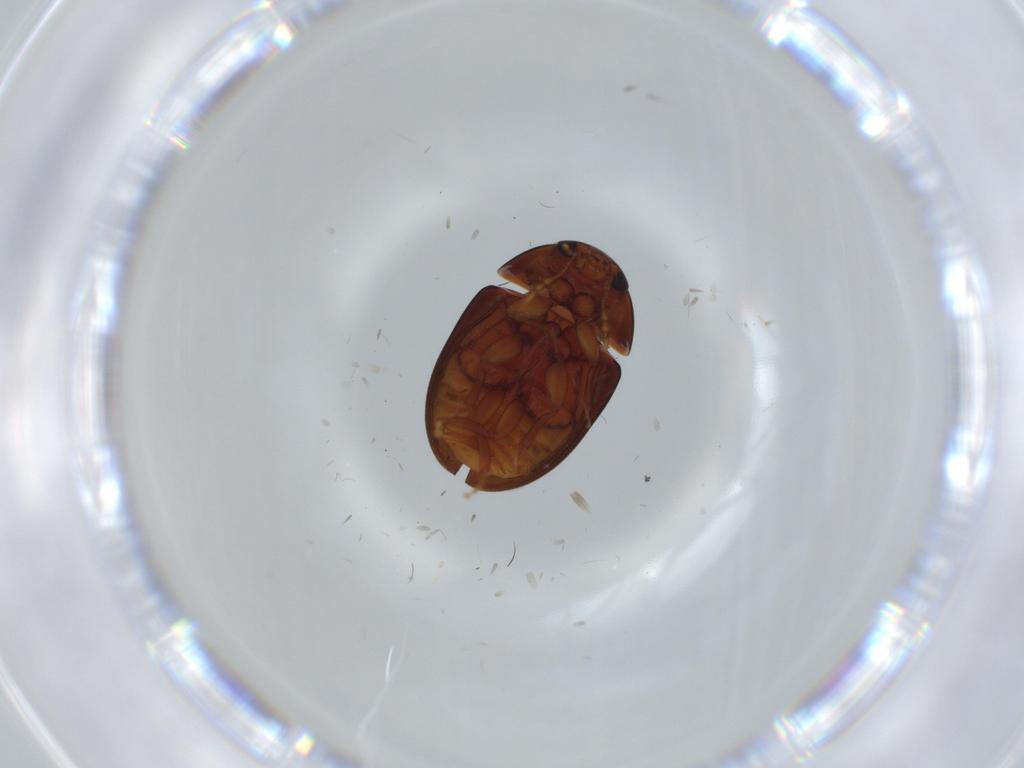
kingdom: Animalia
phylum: Arthropoda
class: Insecta
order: Coleoptera
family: Phalacridae
